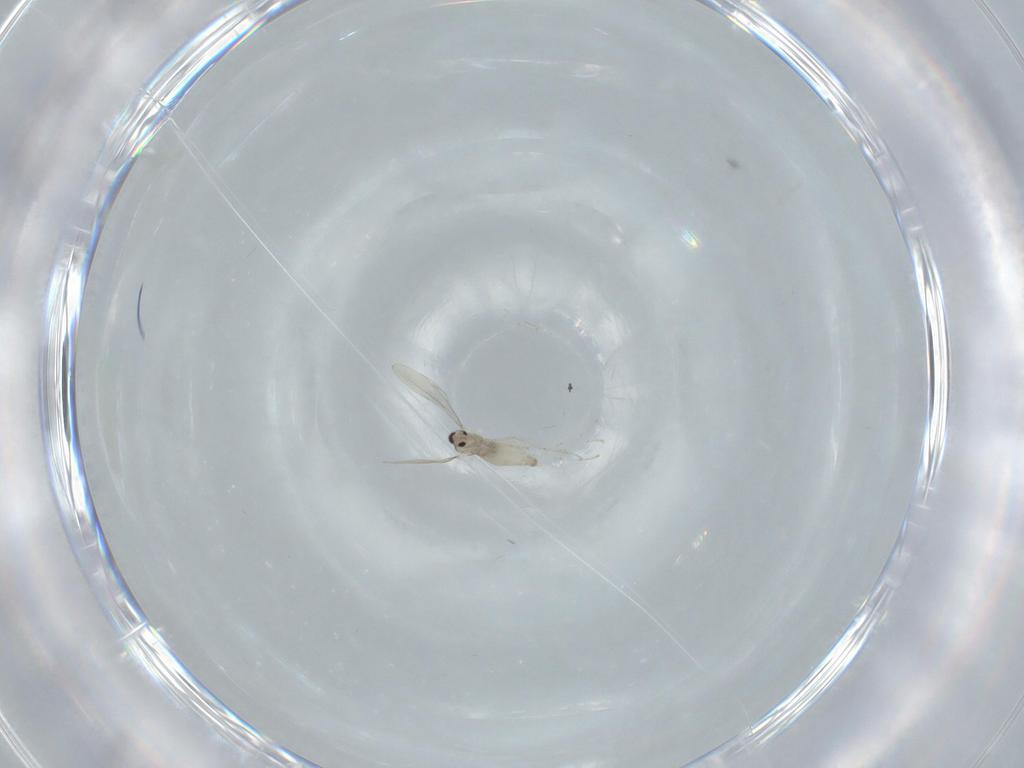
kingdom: Animalia
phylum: Arthropoda
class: Insecta
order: Diptera
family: Cecidomyiidae
